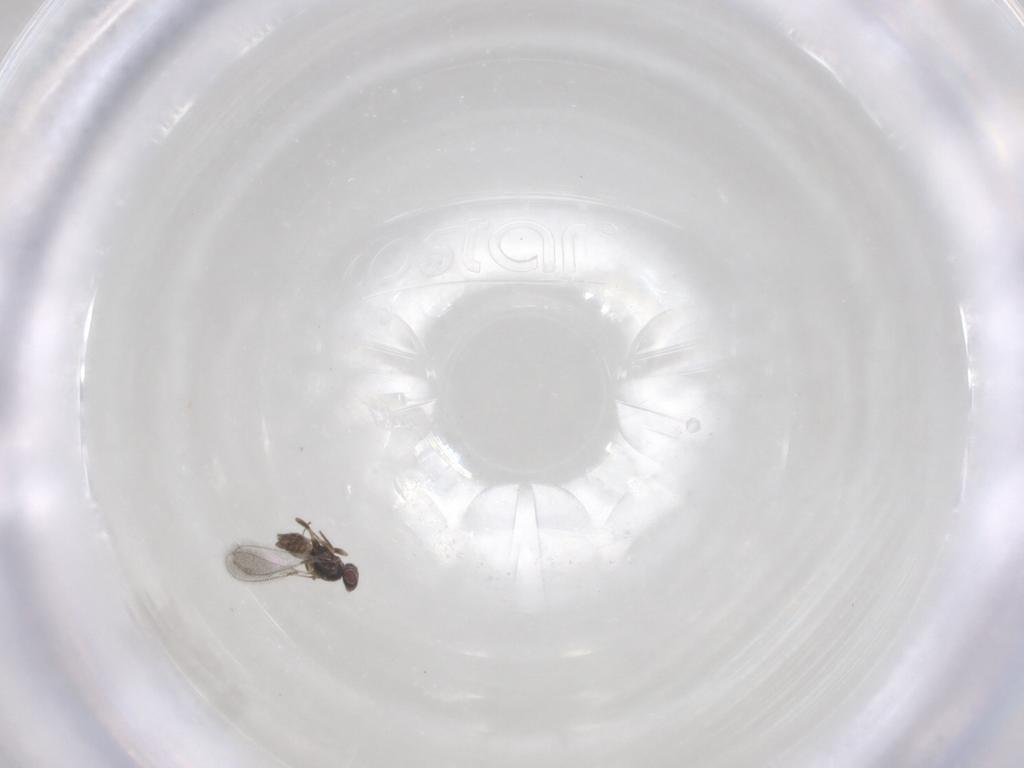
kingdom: Animalia
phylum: Arthropoda
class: Insecta
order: Hymenoptera
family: Mymaridae
